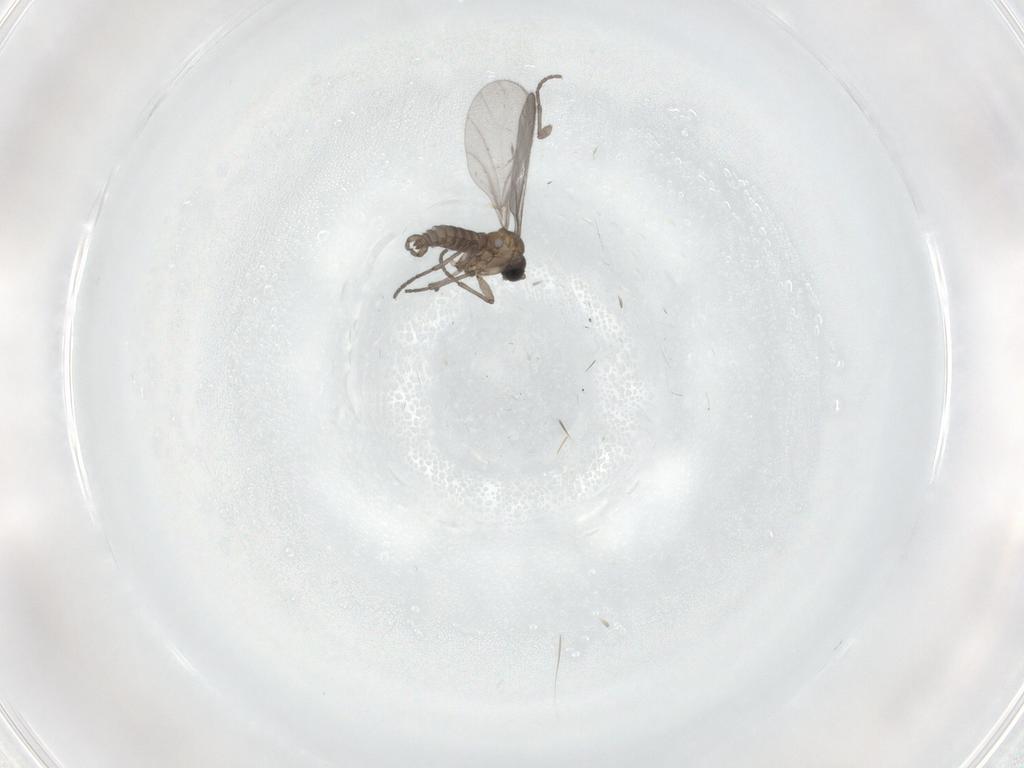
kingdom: Animalia
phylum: Arthropoda
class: Insecta
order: Diptera
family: Sciaridae
